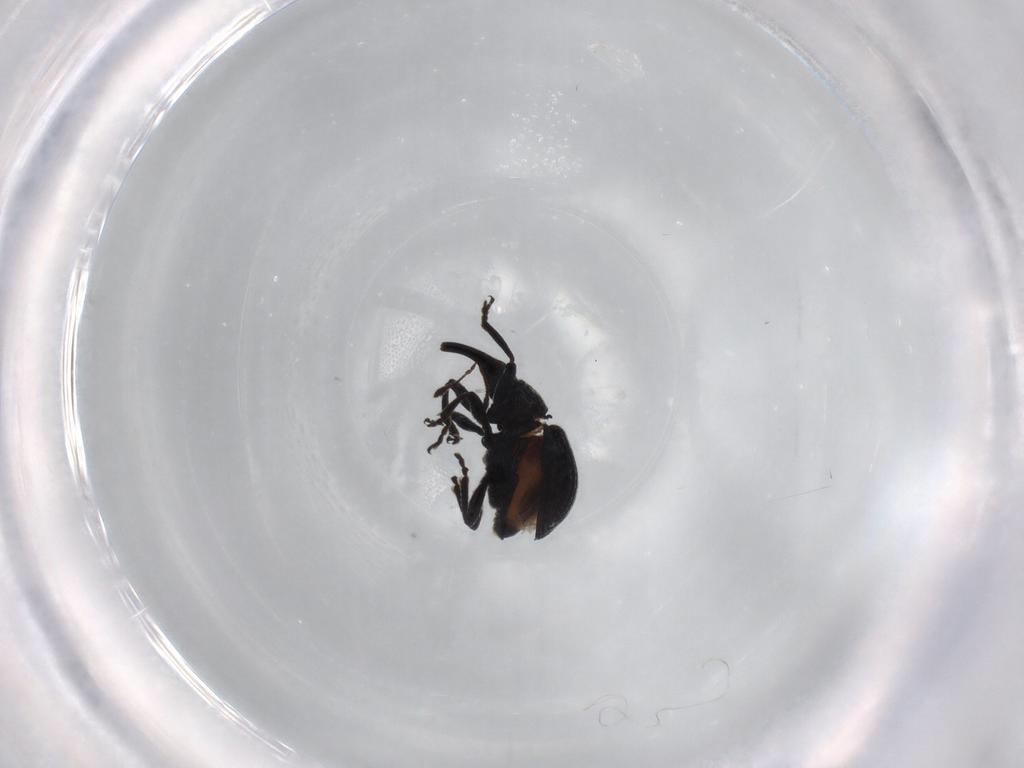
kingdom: Animalia
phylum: Arthropoda
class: Insecta
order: Coleoptera
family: Brentidae
